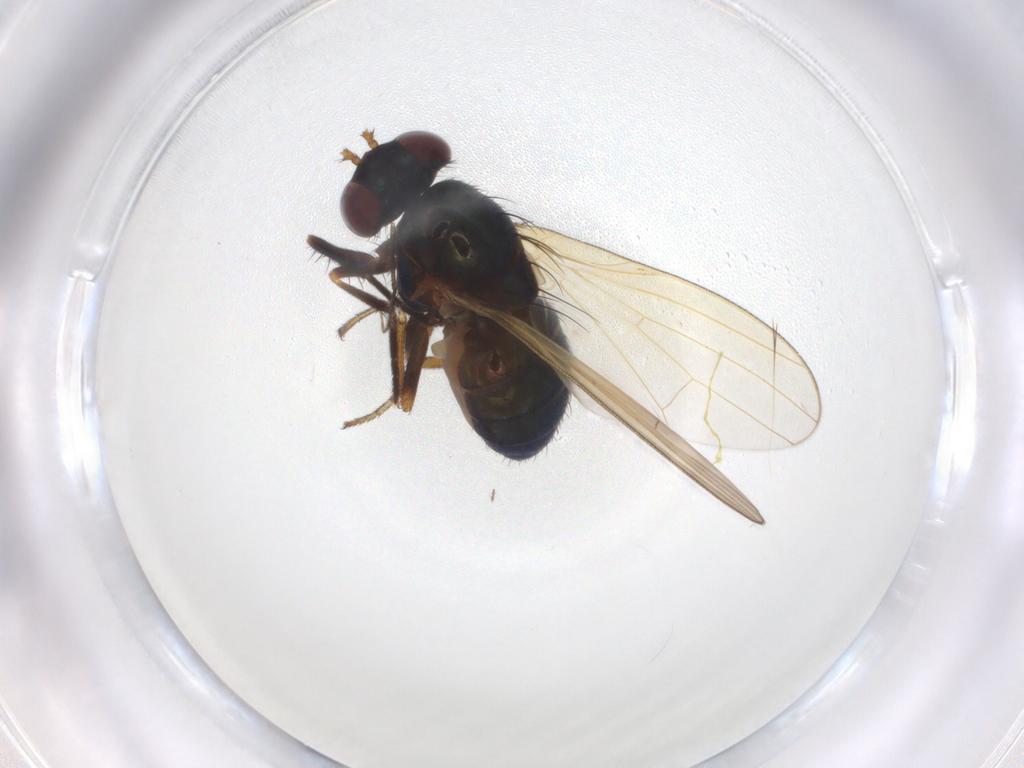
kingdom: Animalia
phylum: Arthropoda
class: Insecta
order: Diptera
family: Lauxaniidae
